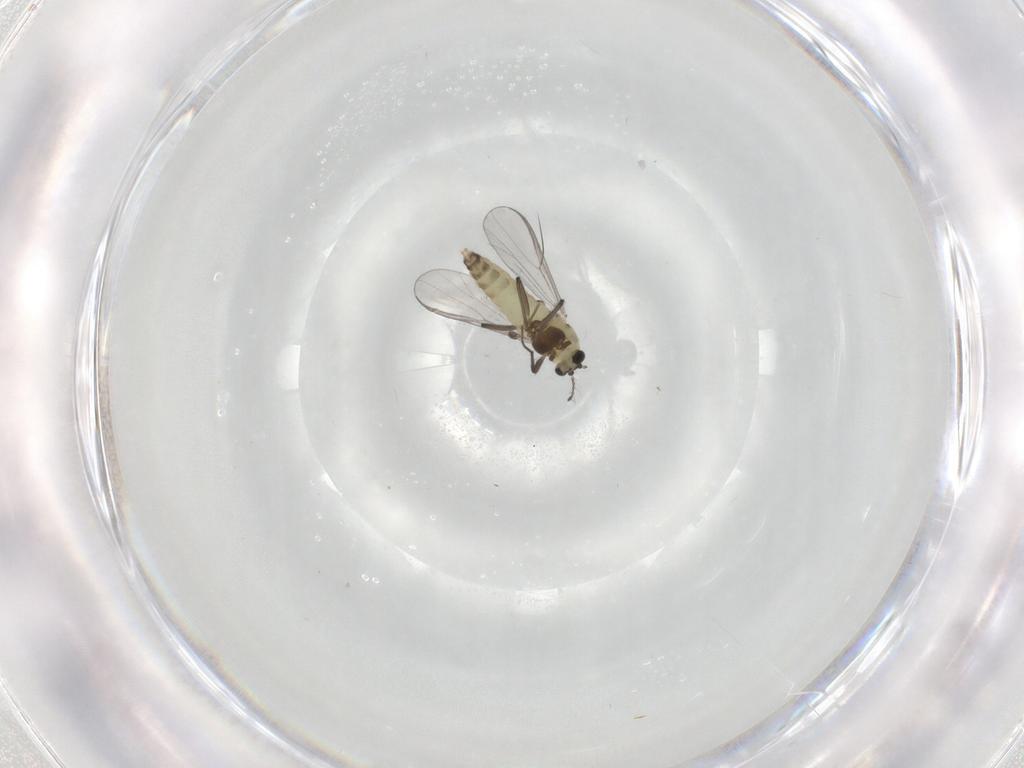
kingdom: Animalia
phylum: Arthropoda
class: Insecta
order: Diptera
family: Chironomidae
